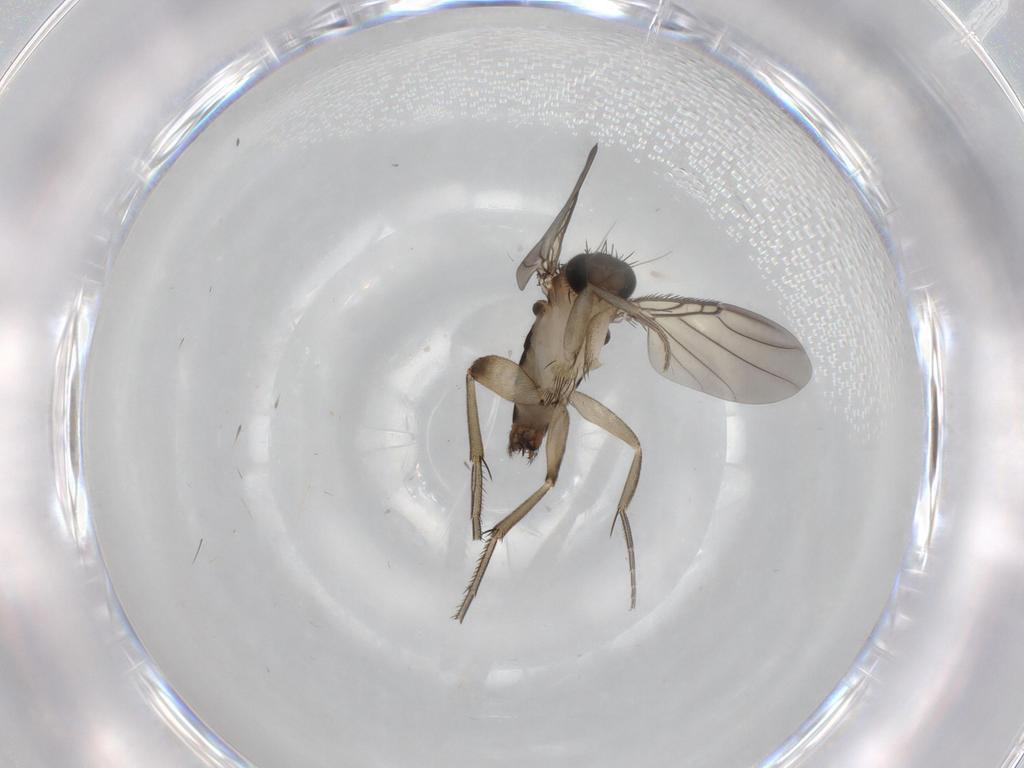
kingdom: Animalia
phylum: Arthropoda
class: Insecta
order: Diptera
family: Phoridae
